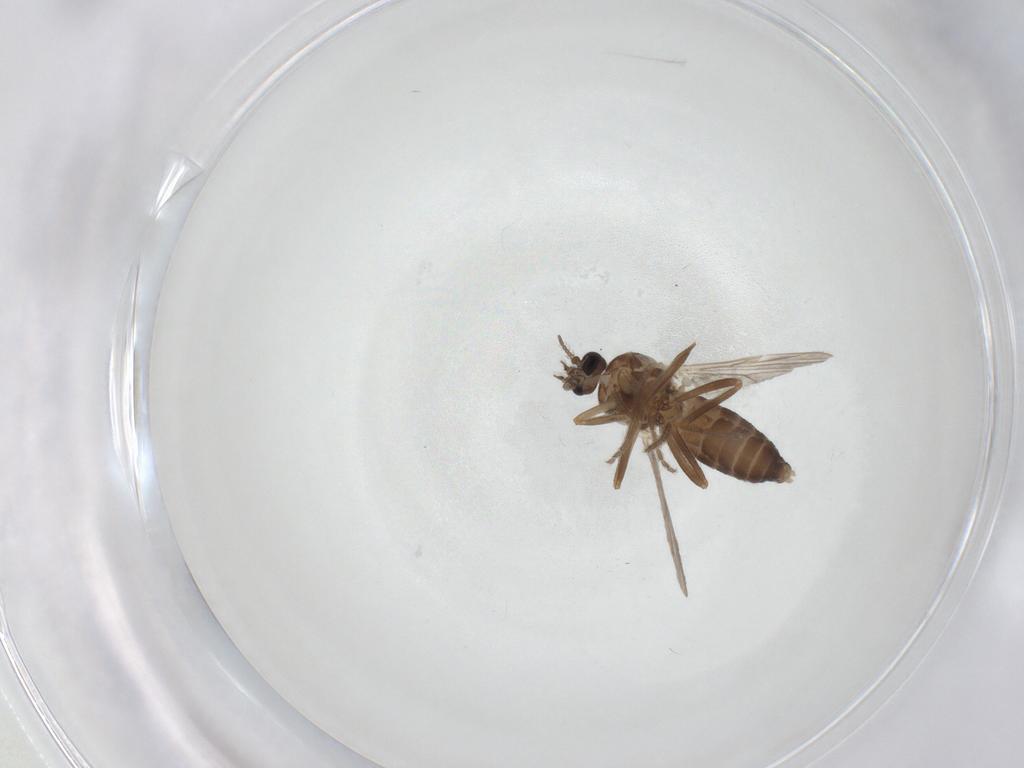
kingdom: Animalia
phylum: Arthropoda
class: Insecta
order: Diptera
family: Ceratopogonidae
